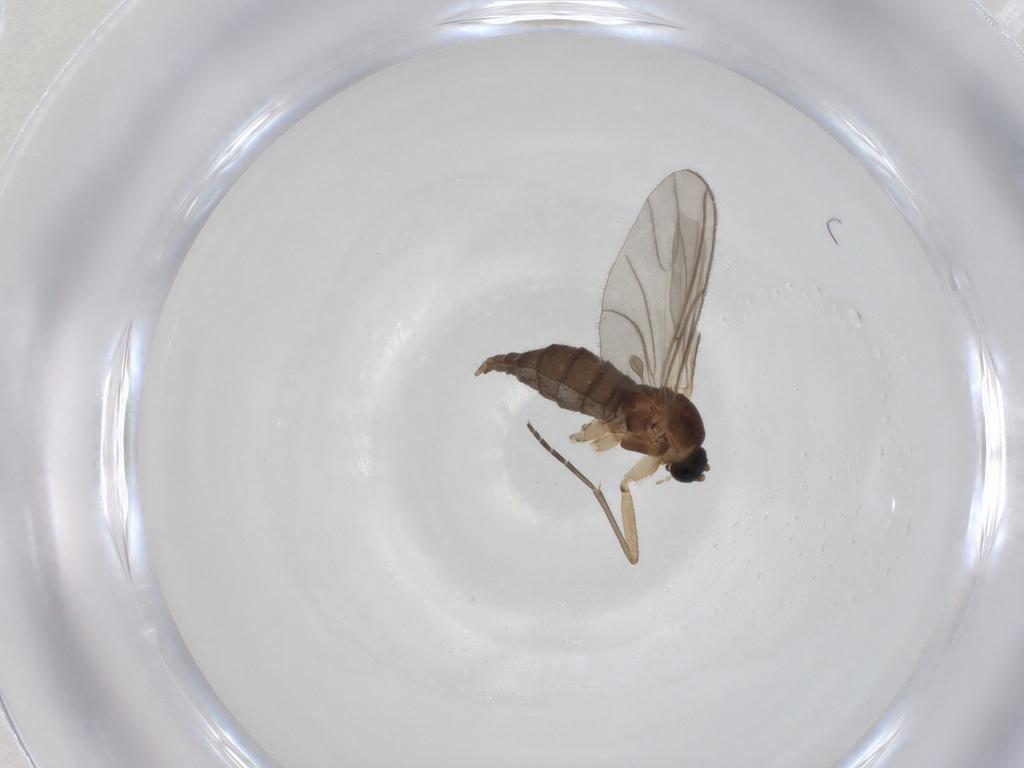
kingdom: Animalia
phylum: Arthropoda
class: Insecta
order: Diptera
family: Sciaridae
